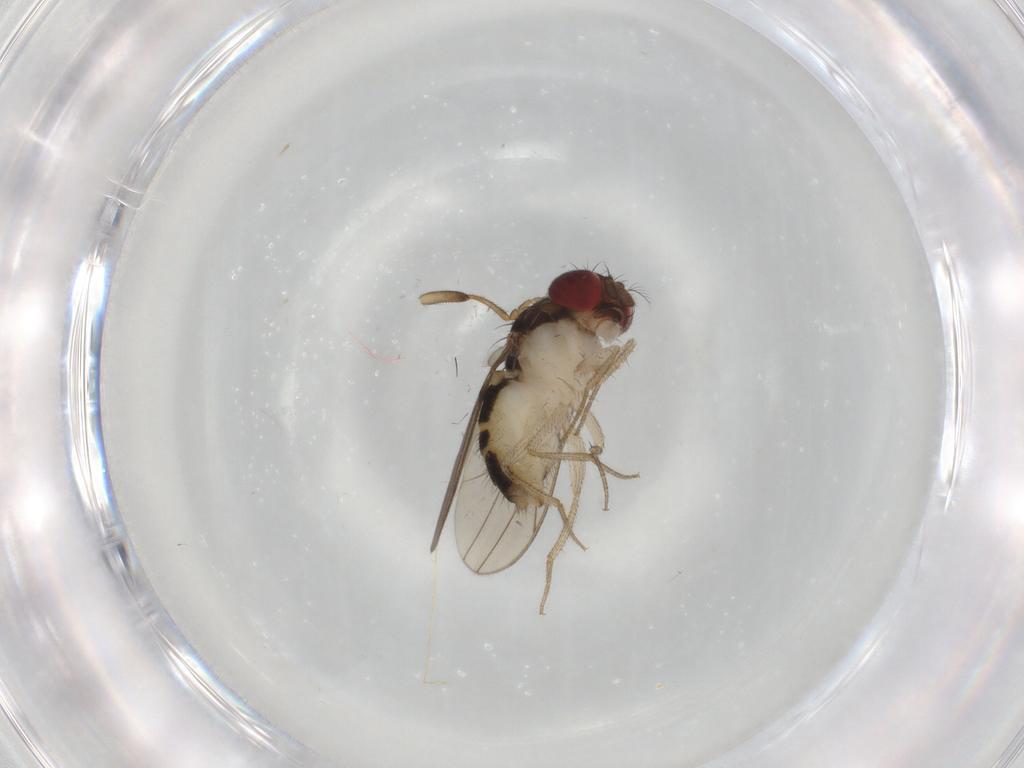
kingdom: Animalia
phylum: Arthropoda
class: Insecta
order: Diptera
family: Drosophilidae
